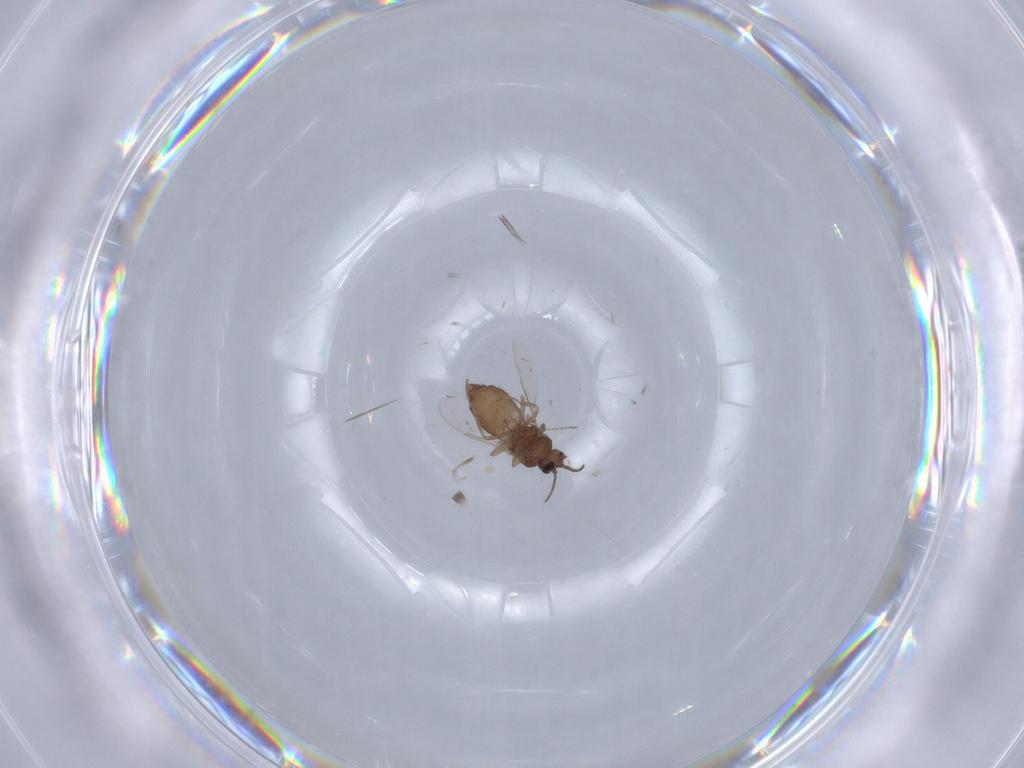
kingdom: Animalia
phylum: Arthropoda
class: Insecta
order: Diptera
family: Ceratopogonidae
